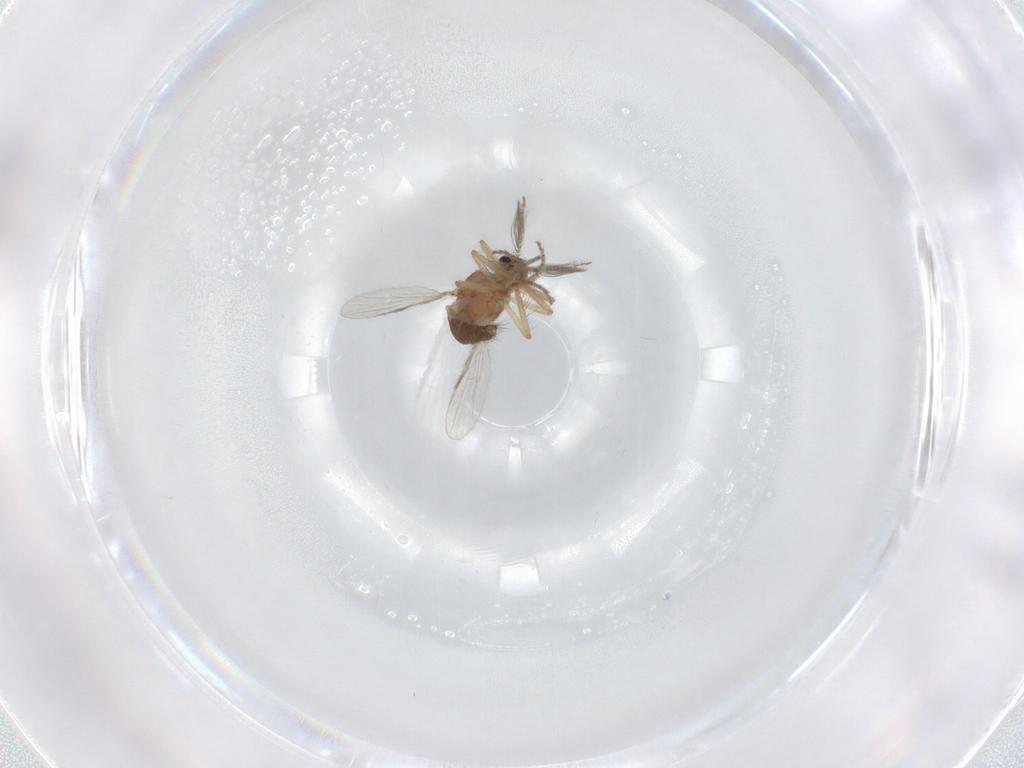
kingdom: Animalia
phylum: Arthropoda
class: Insecta
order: Diptera
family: Ceratopogonidae
